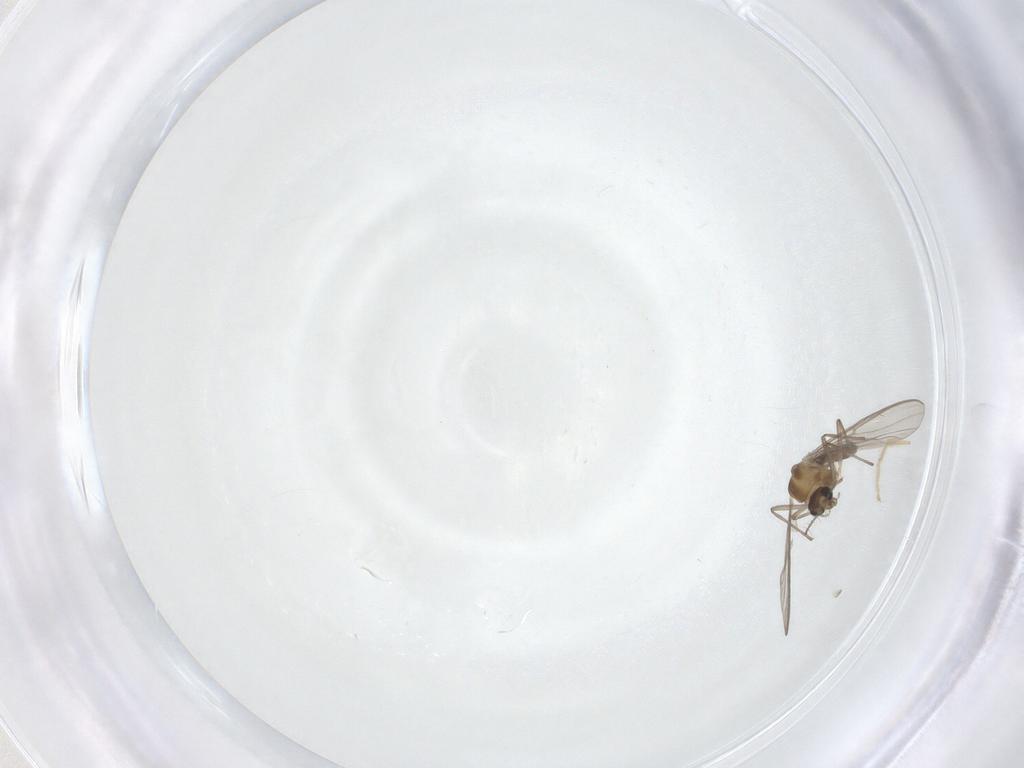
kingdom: Animalia
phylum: Arthropoda
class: Insecta
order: Diptera
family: Chironomidae
